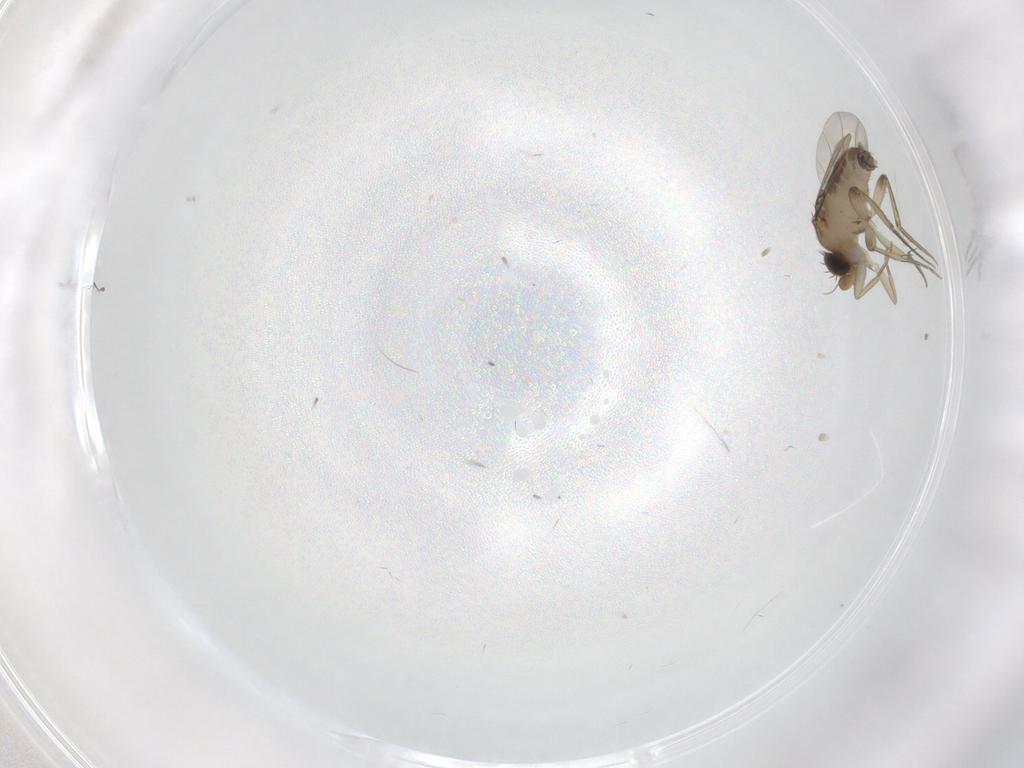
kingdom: Animalia
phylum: Arthropoda
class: Insecta
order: Diptera
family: Phoridae
